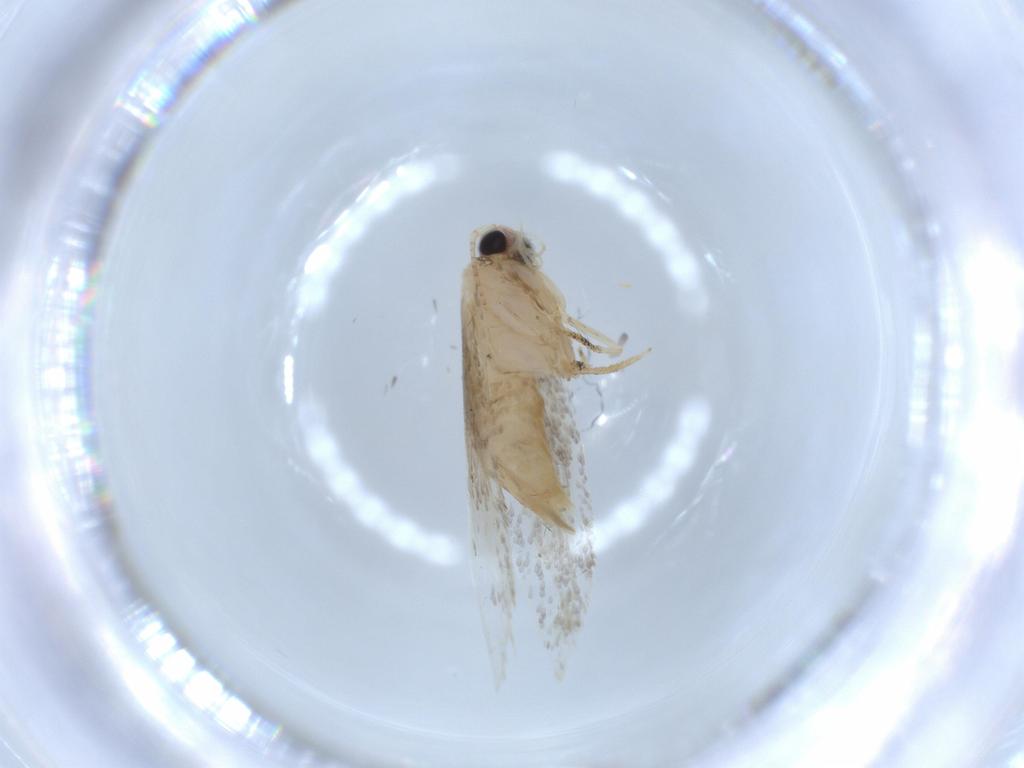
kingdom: Animalia
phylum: Arthropoda
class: Insecta
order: Lepidoptera
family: Tineidae
